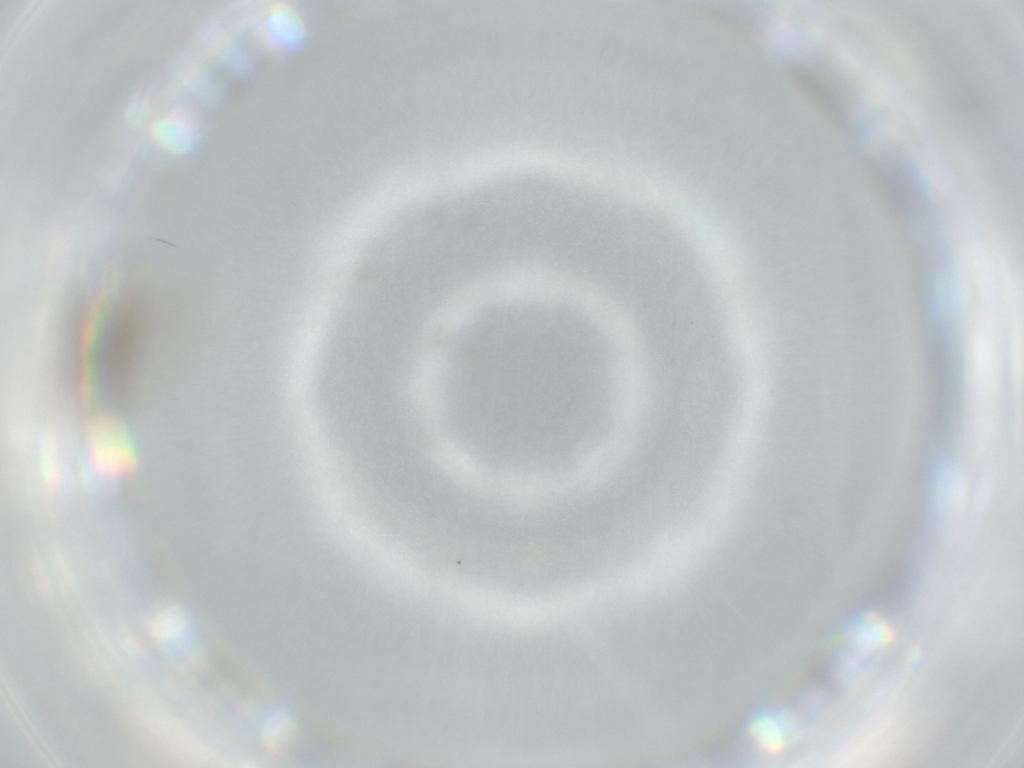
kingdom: Animalia
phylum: Arthropoda
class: Insecta
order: Diptera
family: Chironomidae
